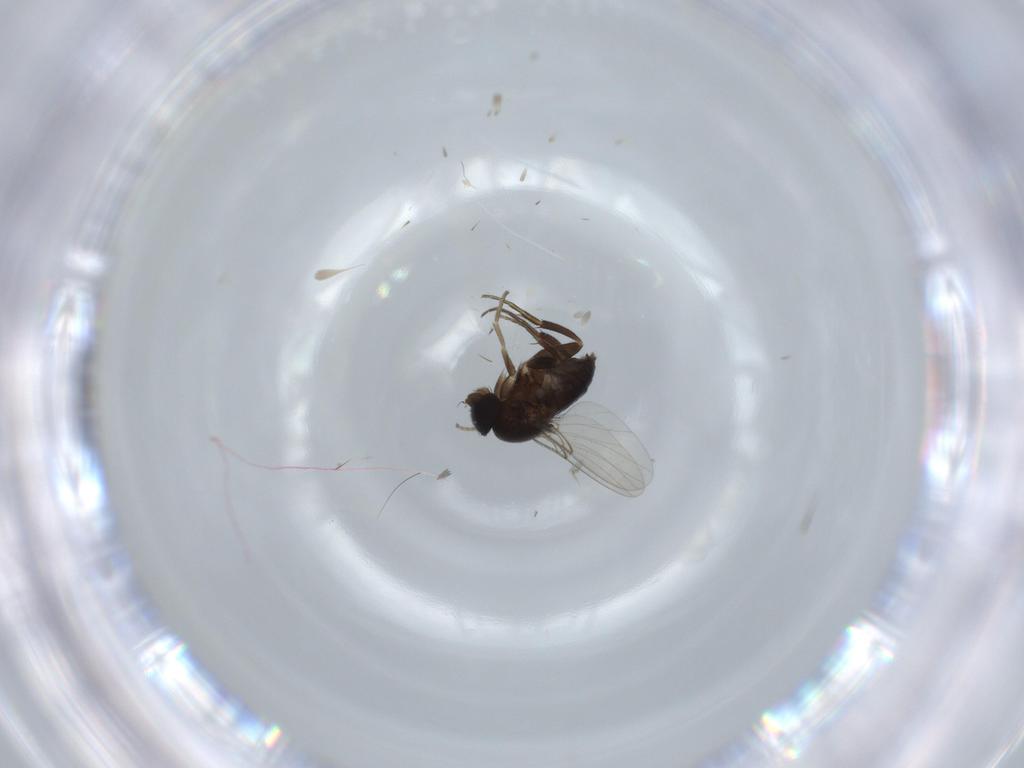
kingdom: Animalia
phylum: Arthropoda
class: Insecta
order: Diptera
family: Phoridae
